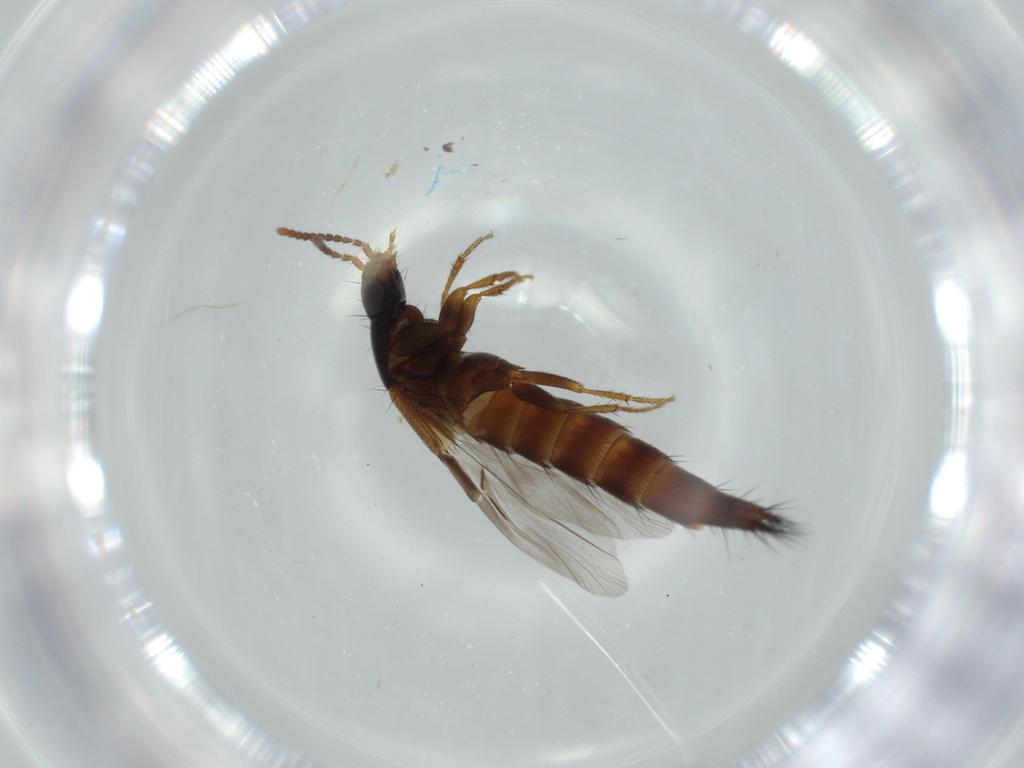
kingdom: Animalia
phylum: Arthropoda
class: Insecta
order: Coleoptera
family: Staphylinidae
